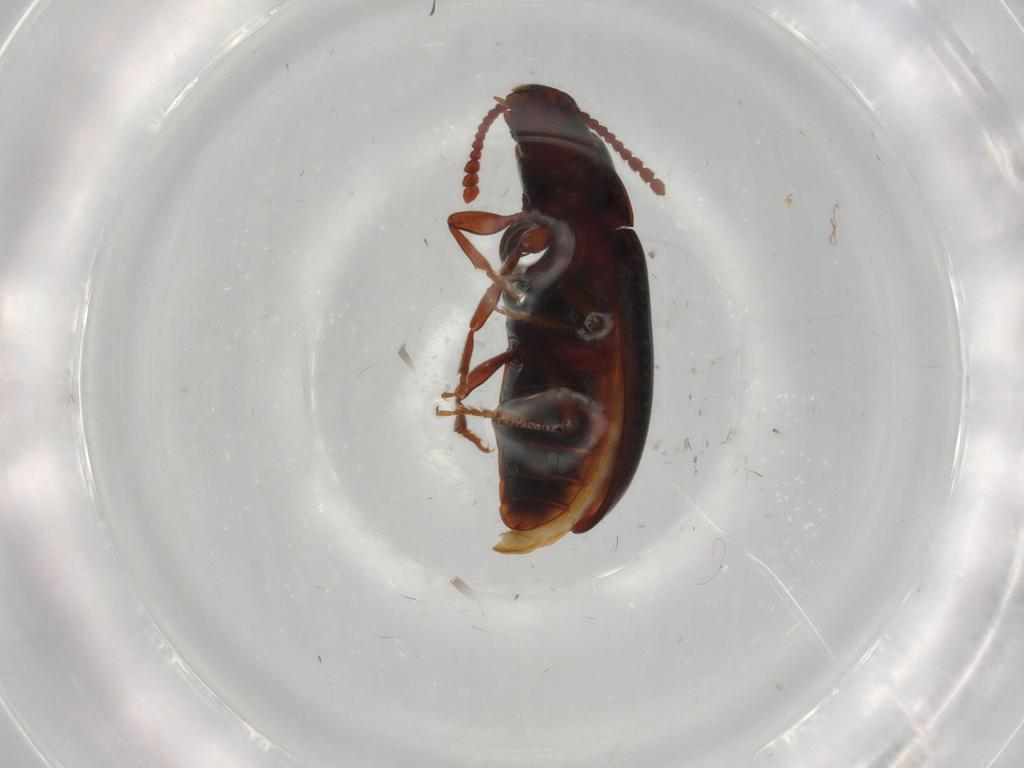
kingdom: Animalia
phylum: Arthropoda
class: Insecta
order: Coleoptera
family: Erotylidae
